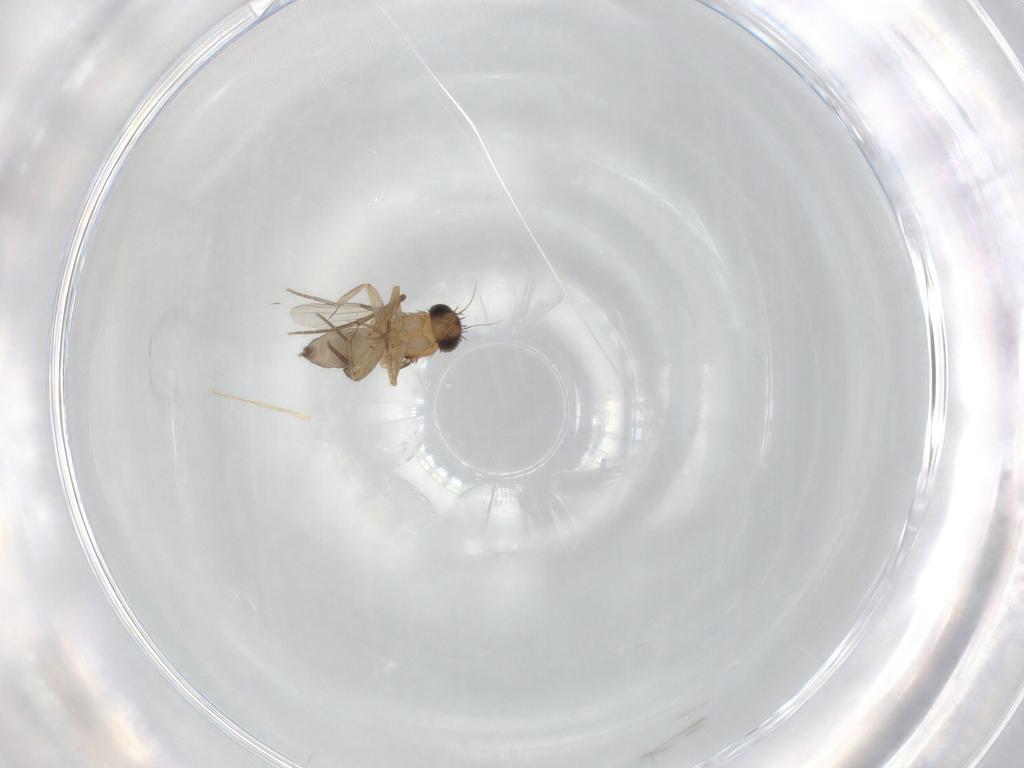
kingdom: Animalia
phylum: Arthropoda
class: Insecta
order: Diptera
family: Phoridae
